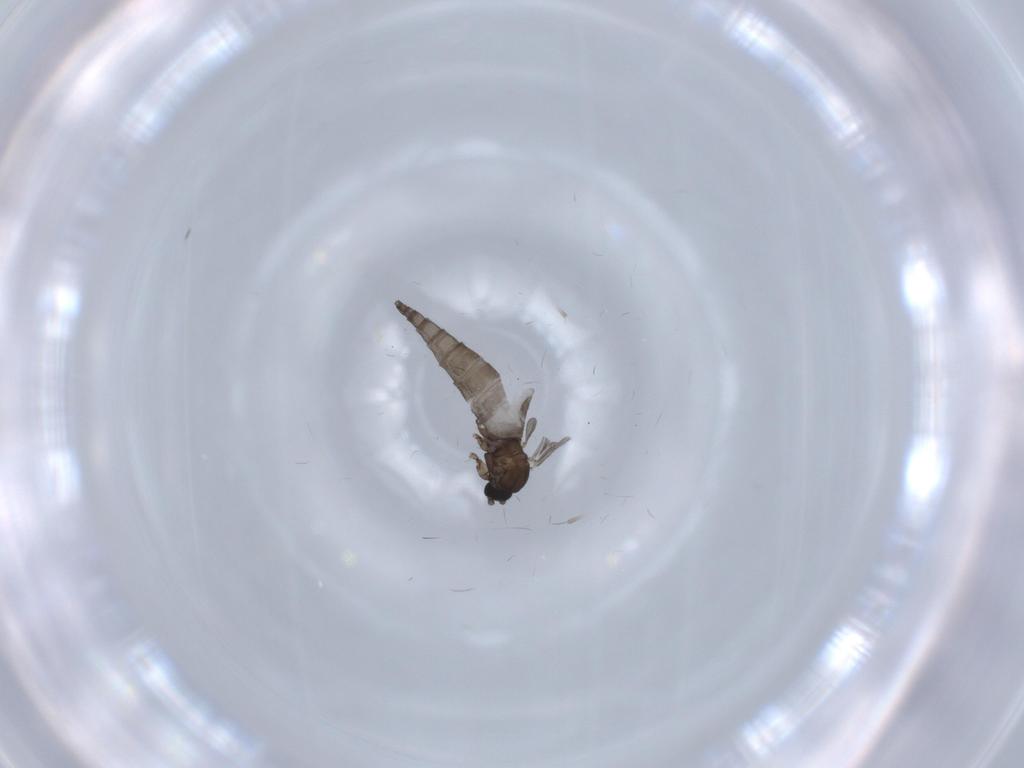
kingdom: Animalia
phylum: Arthropoda
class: Insecta
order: Diptera
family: Sciaridae
